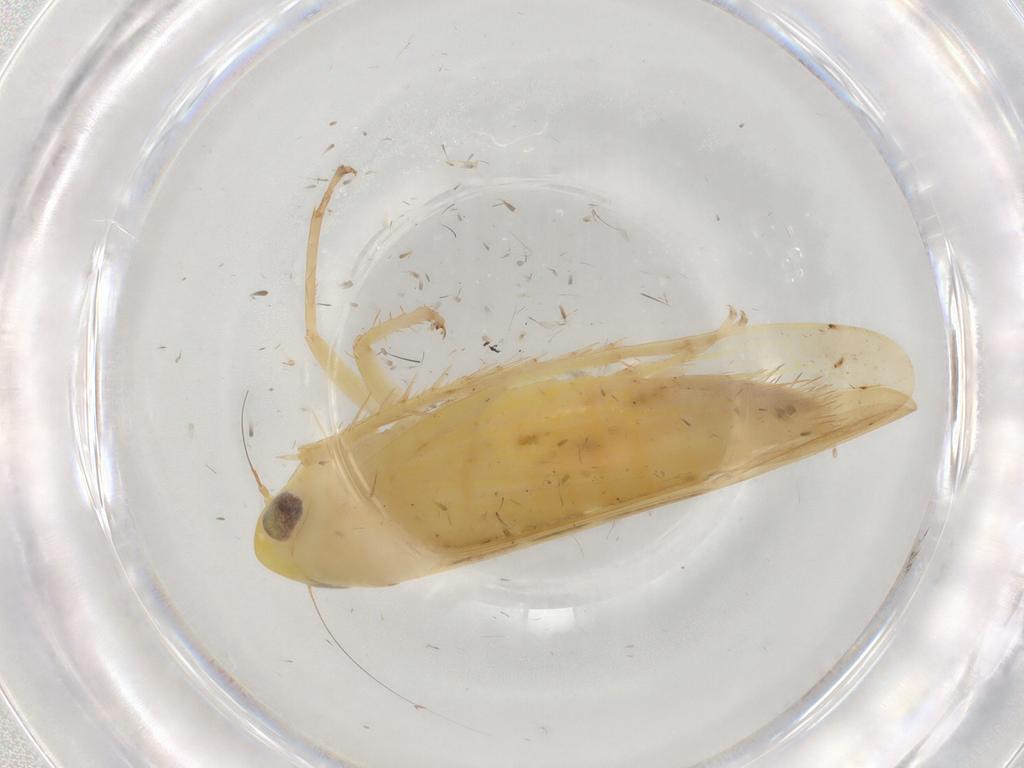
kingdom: Animalia
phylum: Arthropoda
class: Insecta
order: Hemiptera
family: Cicadellidae
